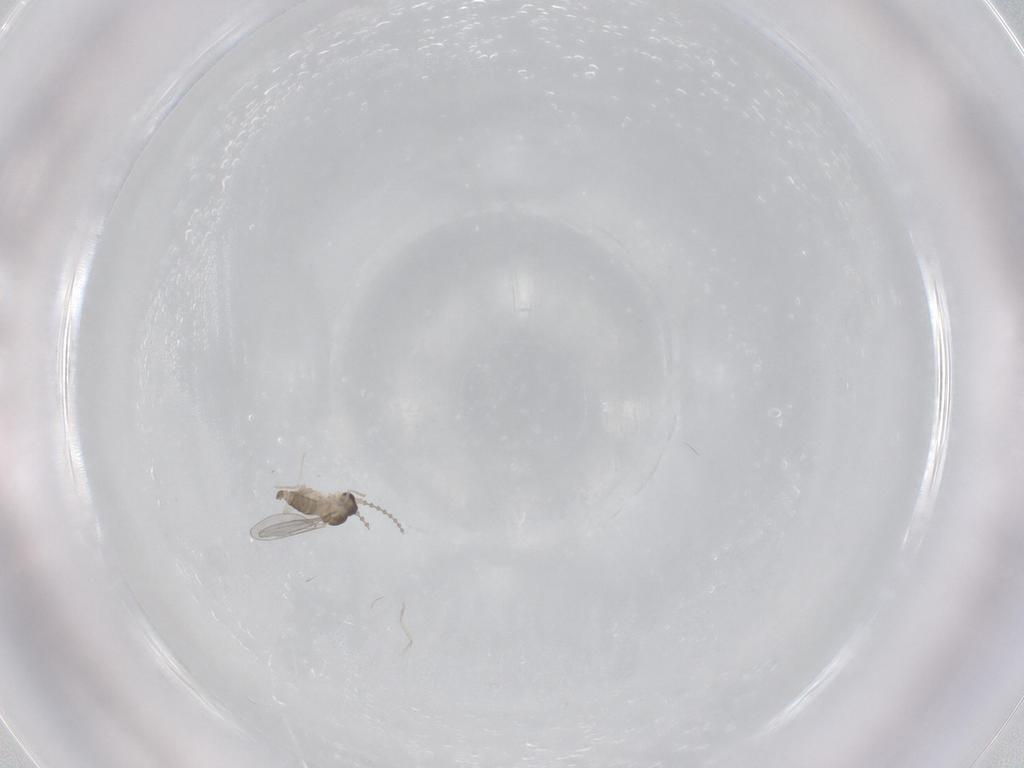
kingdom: Animalia
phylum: Arthropoda
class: Insecta
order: Diptera
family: Cecidomyiidae
